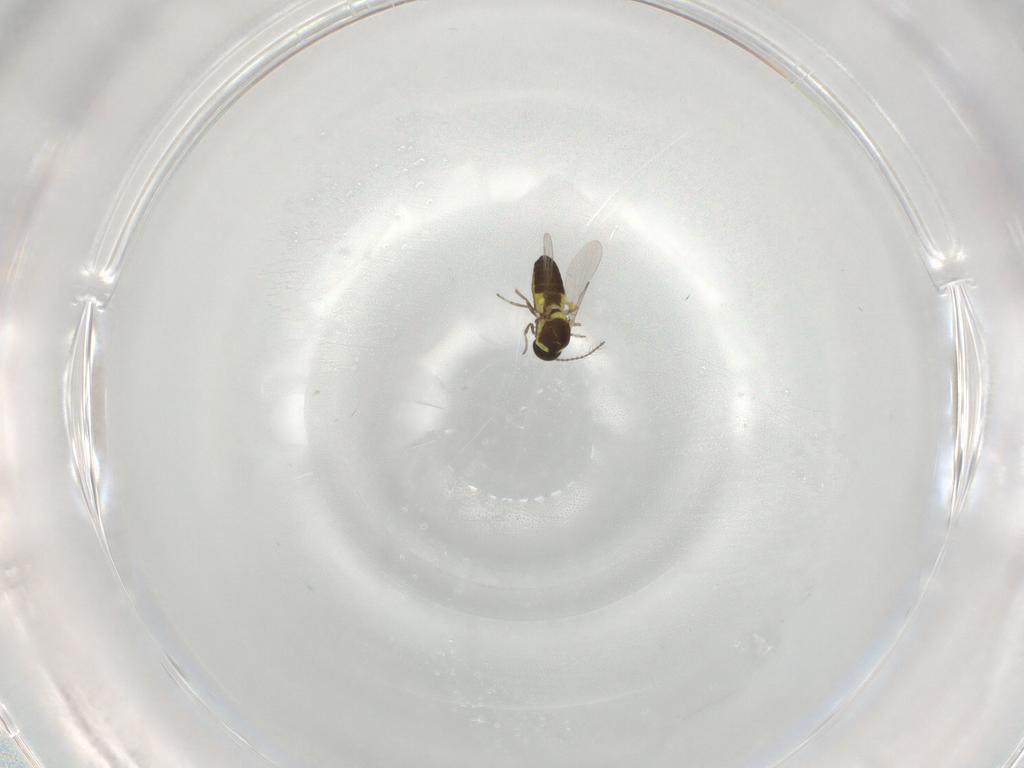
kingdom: Animalia
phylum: Arthropoda
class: Insecta
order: Diptera
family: Ceratopogonidae
